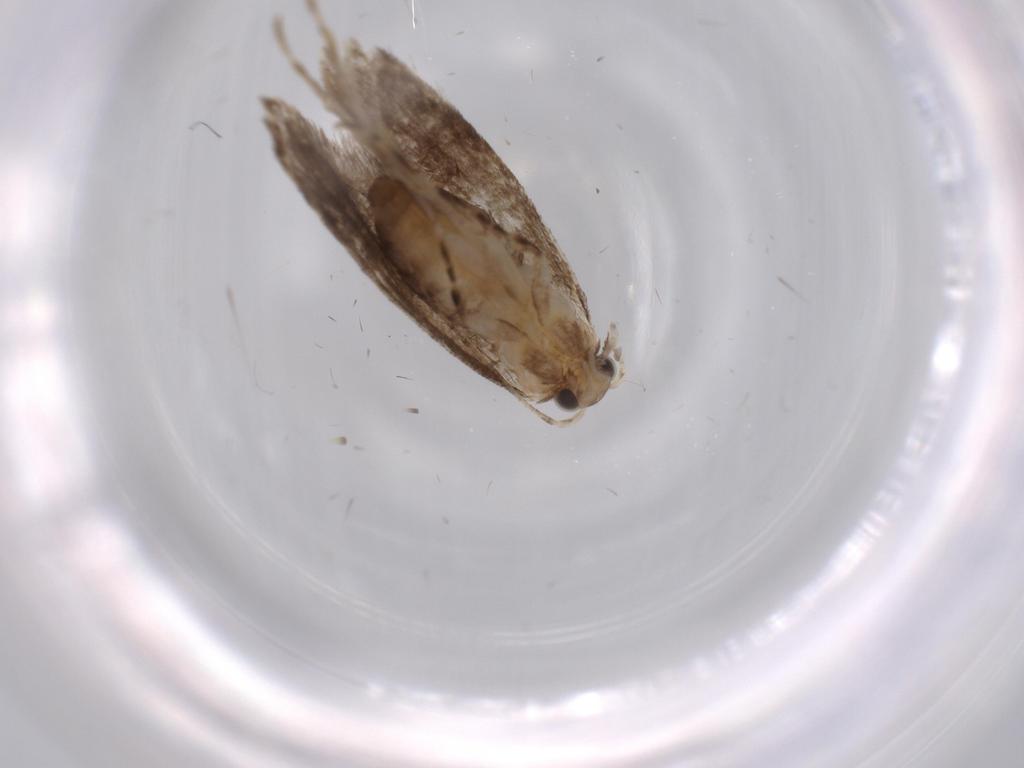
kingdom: Animalia
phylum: Arthropoda
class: Insecta
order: Lepidoptera
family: Tineidae
